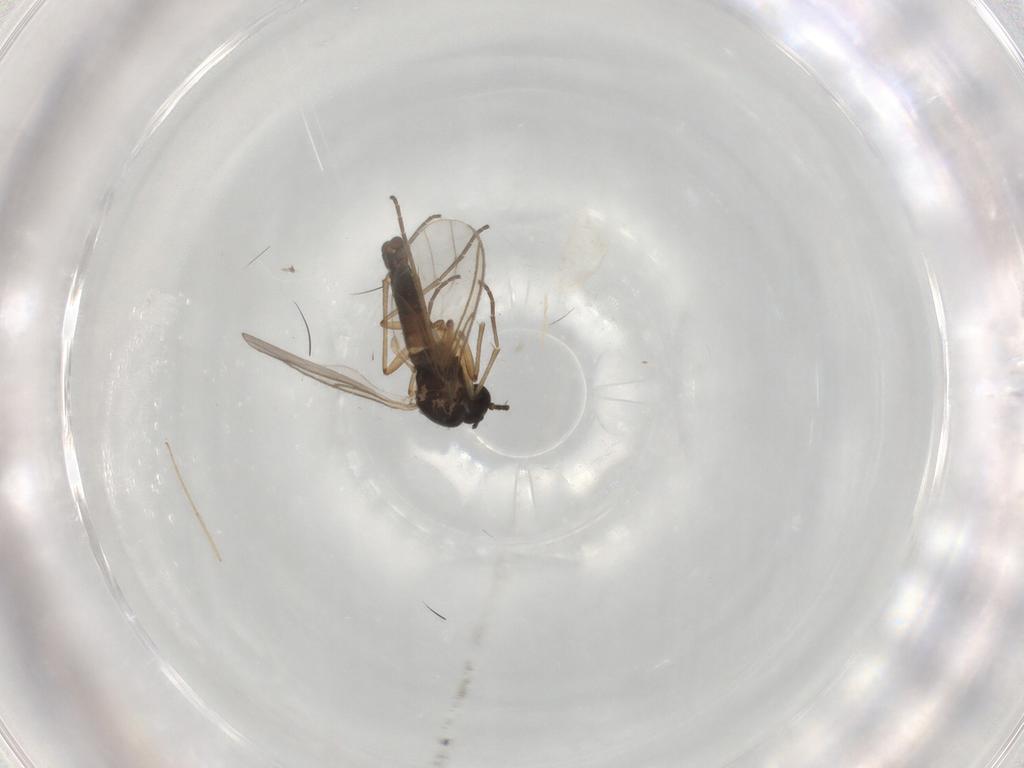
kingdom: Animalia
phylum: Arthropoda
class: Insecta
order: Diptera
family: Sciaridae
